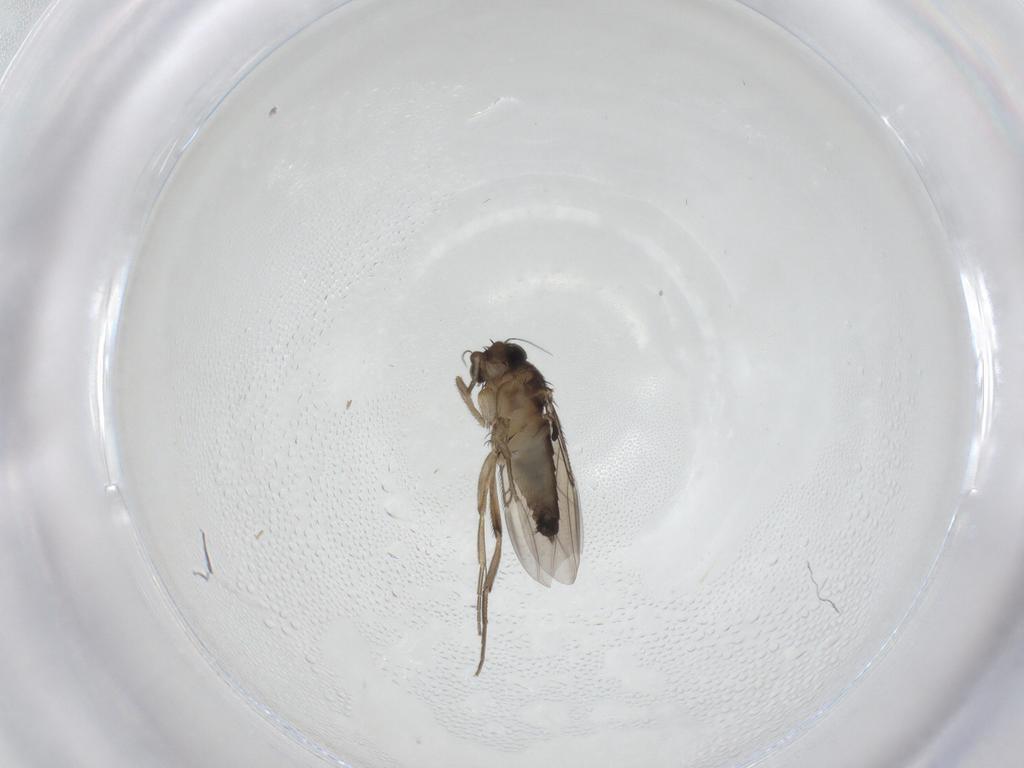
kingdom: Animalia
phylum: Arthropoda
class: Insecta
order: Diptera
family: Phoridae
